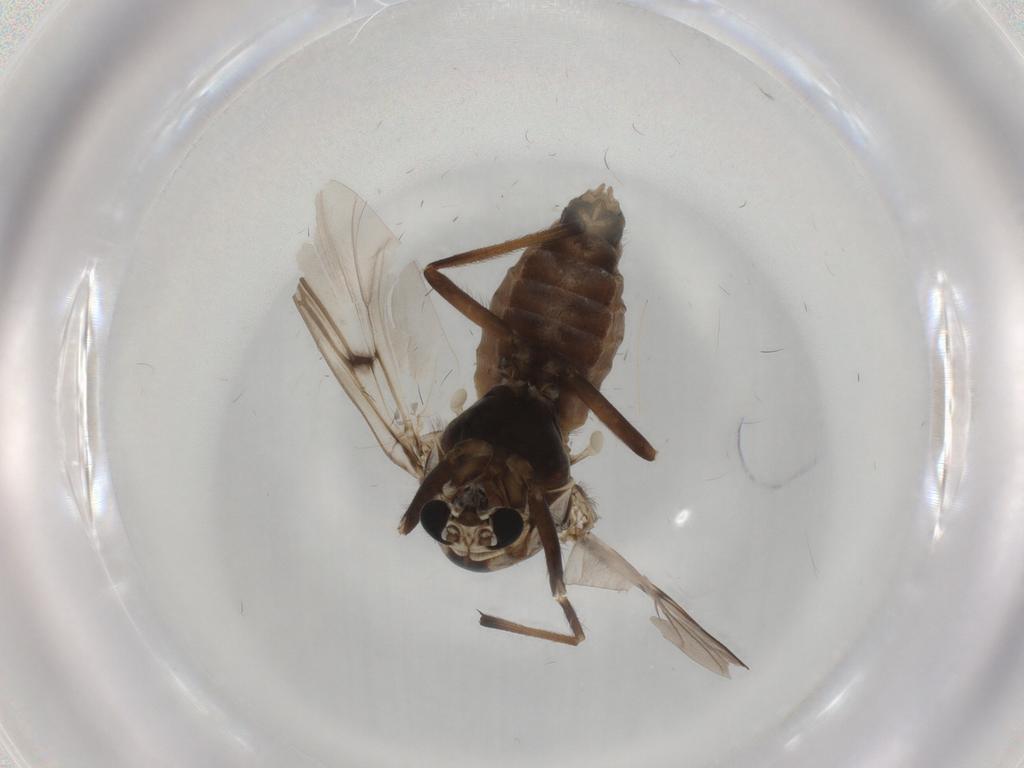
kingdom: Animalia
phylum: Arthropoda
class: Insecta
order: Diptera
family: Chironomidae
